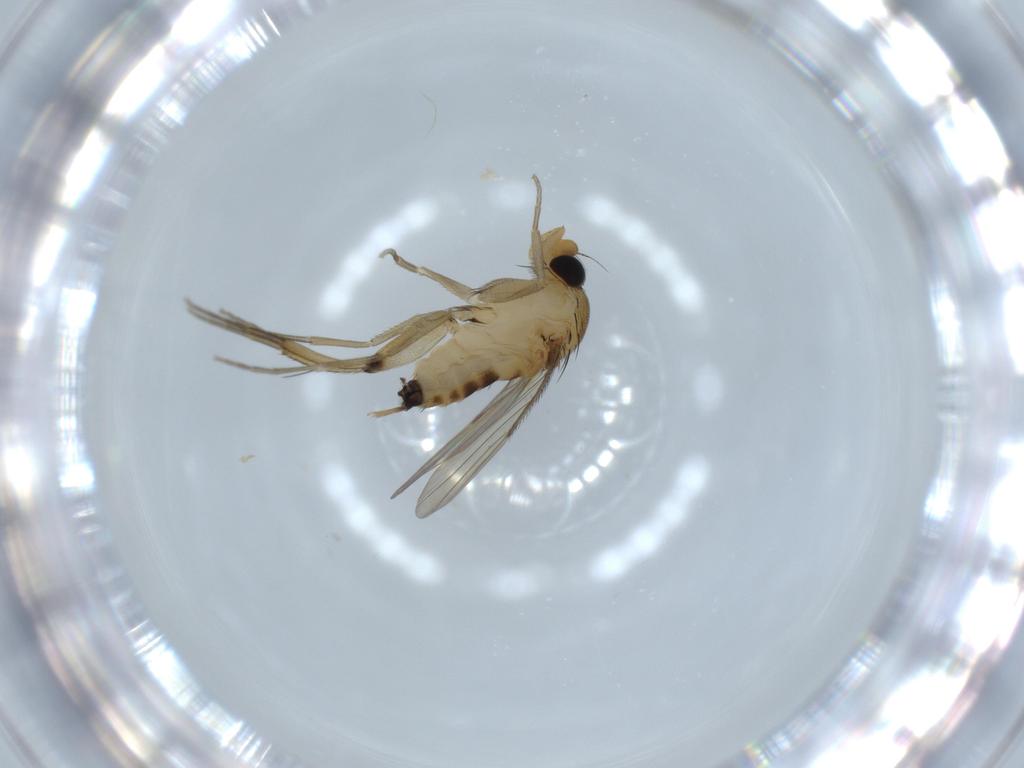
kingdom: Animalia
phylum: Arthropoda
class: Insecta
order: Diptera
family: Phoridae
